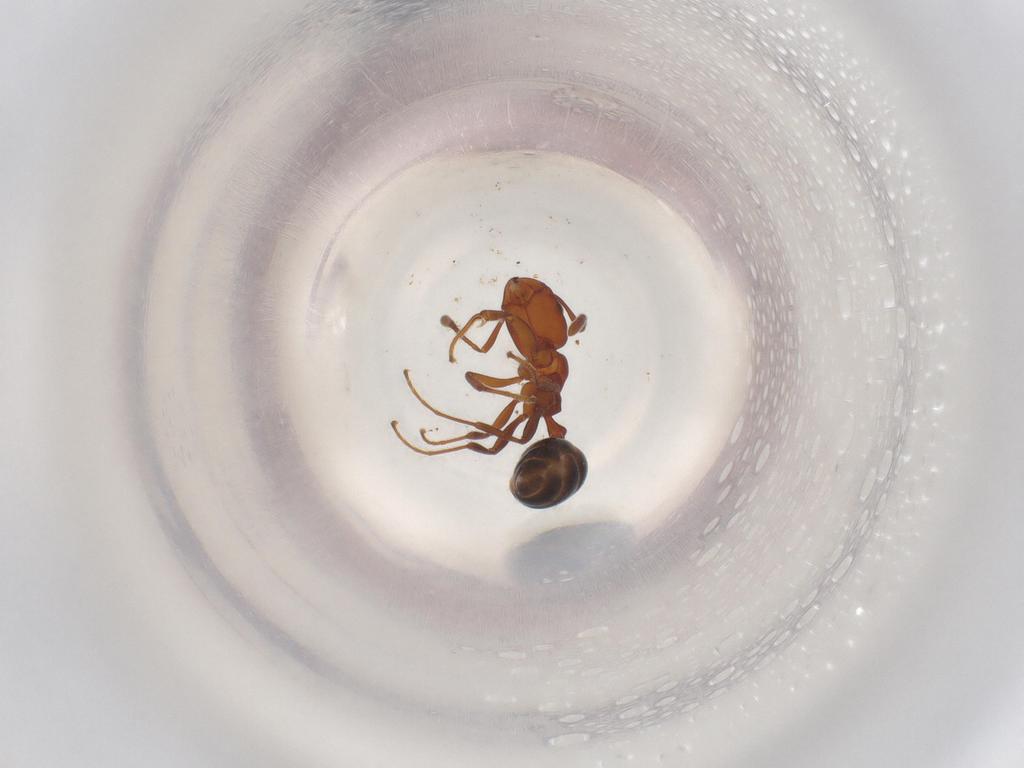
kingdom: Animalia
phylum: Arthropoda
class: Insecta
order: Hymenoptera
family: Formicidae
